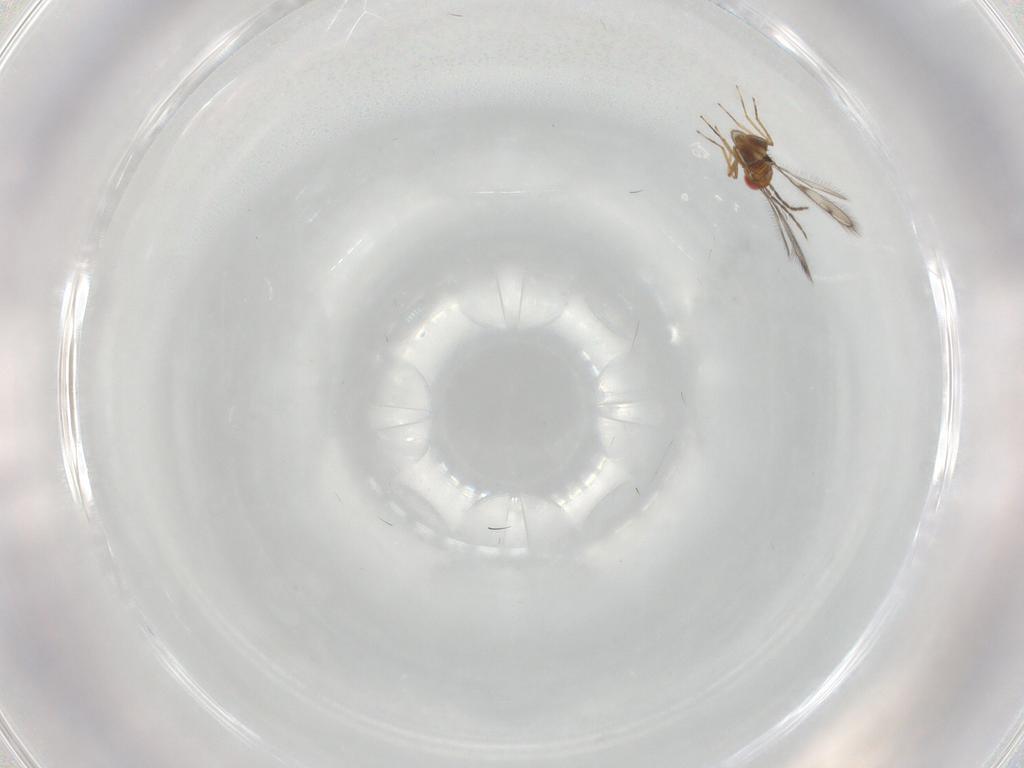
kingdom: Animalia
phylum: Arthropoda
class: Insecta
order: Hymenoptera
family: Eulophidae
